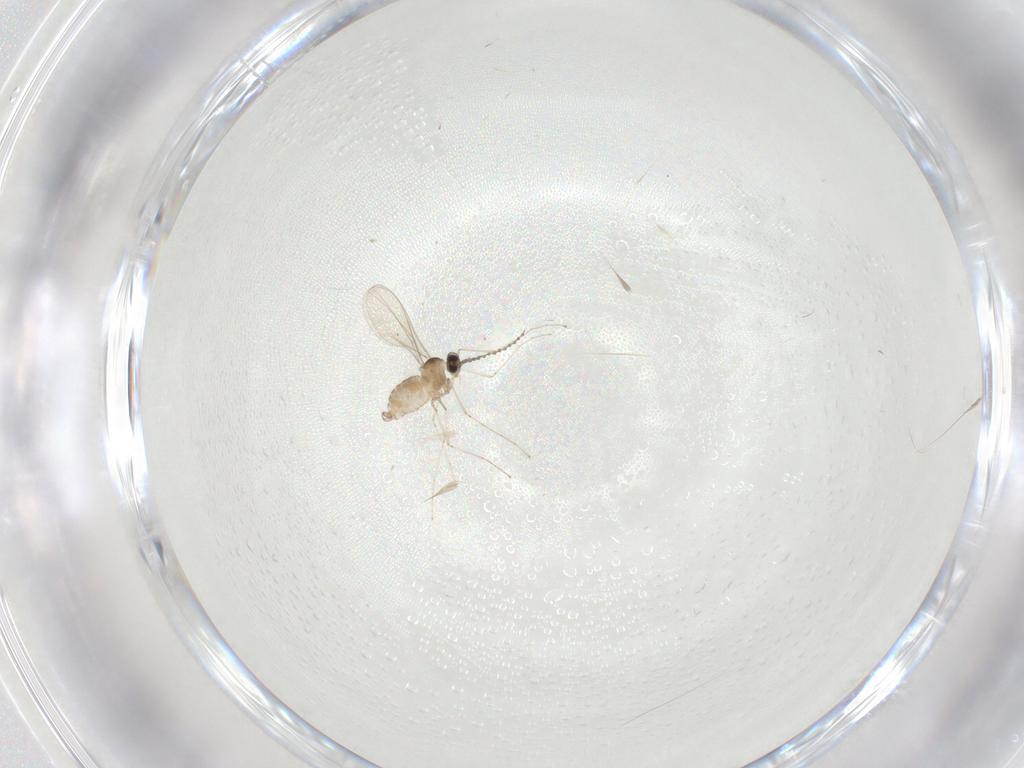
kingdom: Animalia
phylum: Arthropoda
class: Insecta
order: Diptera
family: Cecidomyiidae
